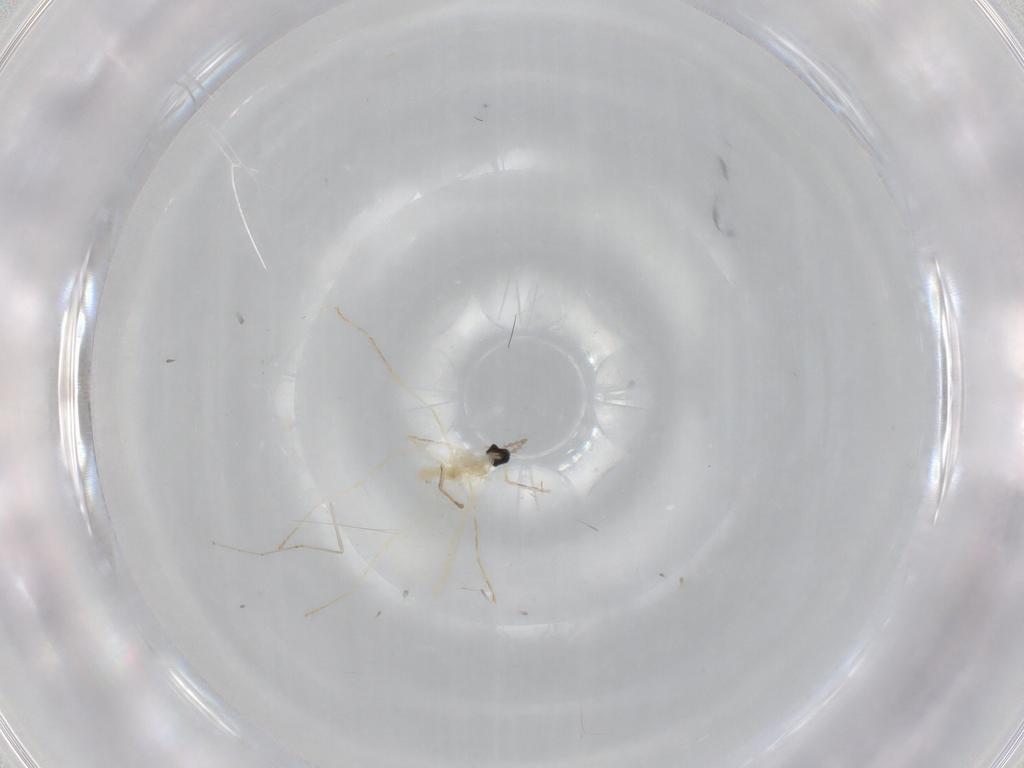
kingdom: Animalia
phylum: Arthropoda
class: Insecta
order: Diptera
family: Cecidomyiidae
